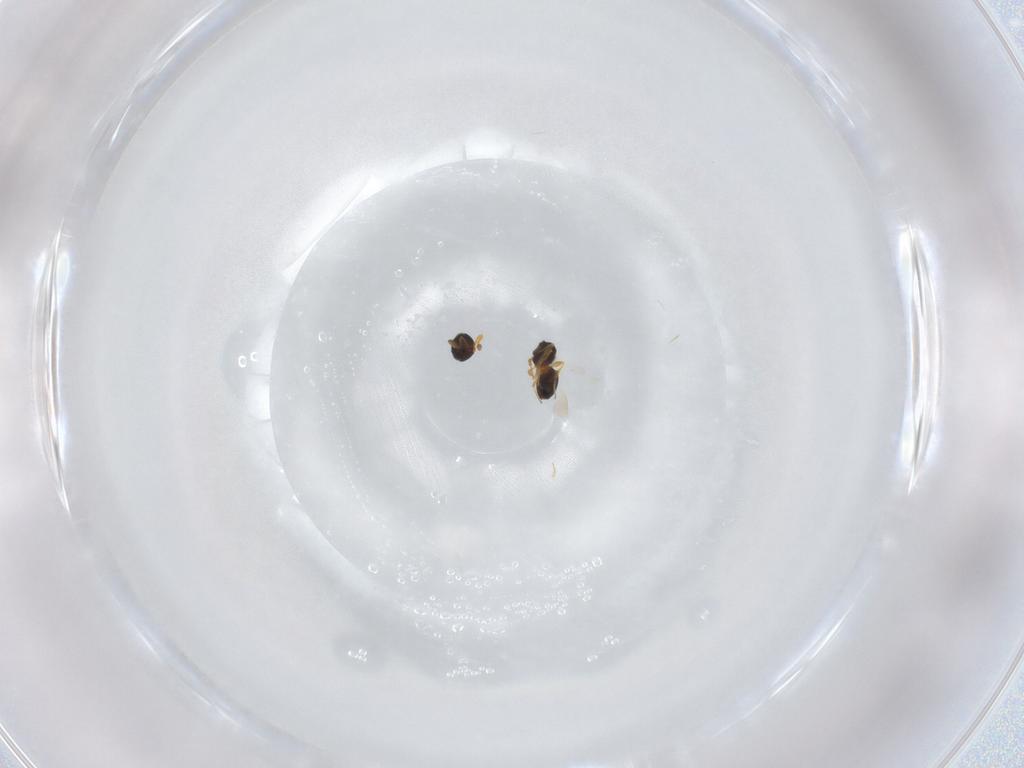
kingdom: Animalia
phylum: Arthropoda
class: Insecta
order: Hymenoptera
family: Platygastridae
